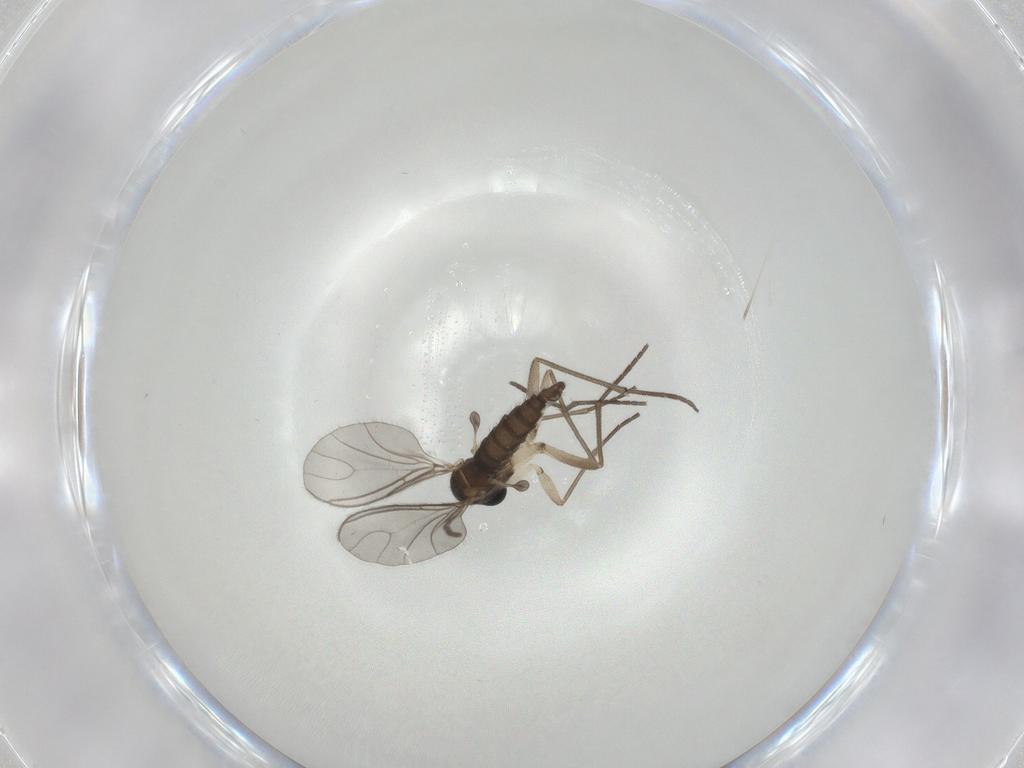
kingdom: Animalia
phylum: Arthropoda
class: Insecta
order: Diptera
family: Sciaridae
